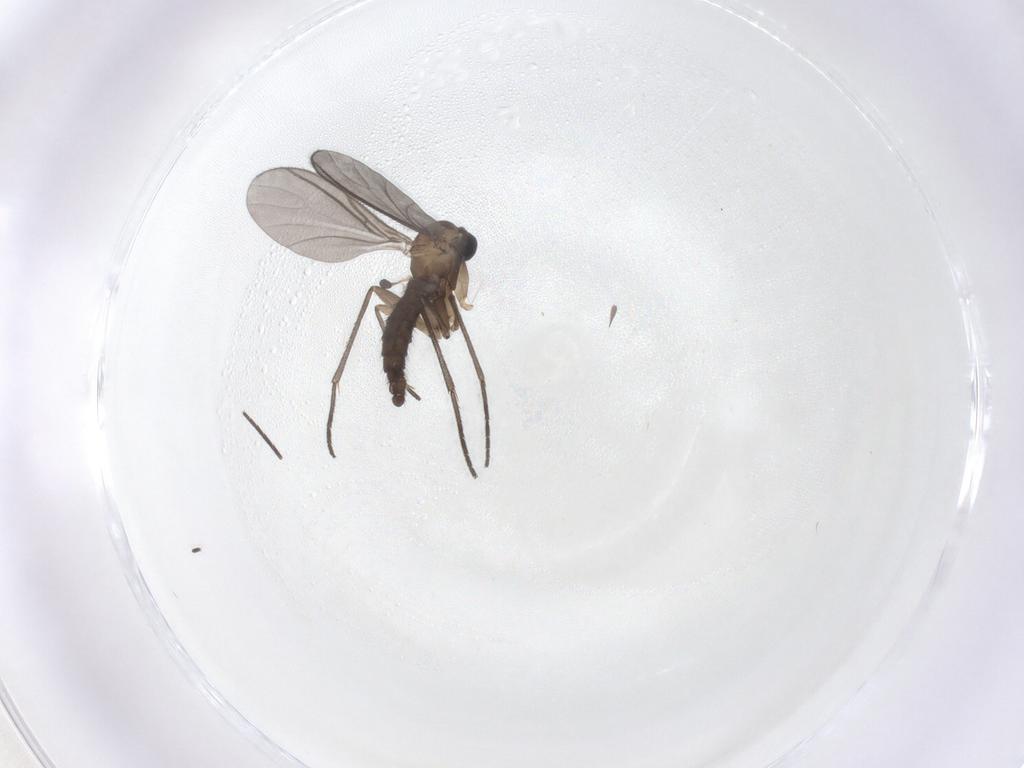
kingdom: Animalia
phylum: Arthropoda
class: Insecta
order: Diptera
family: Sciaridae
